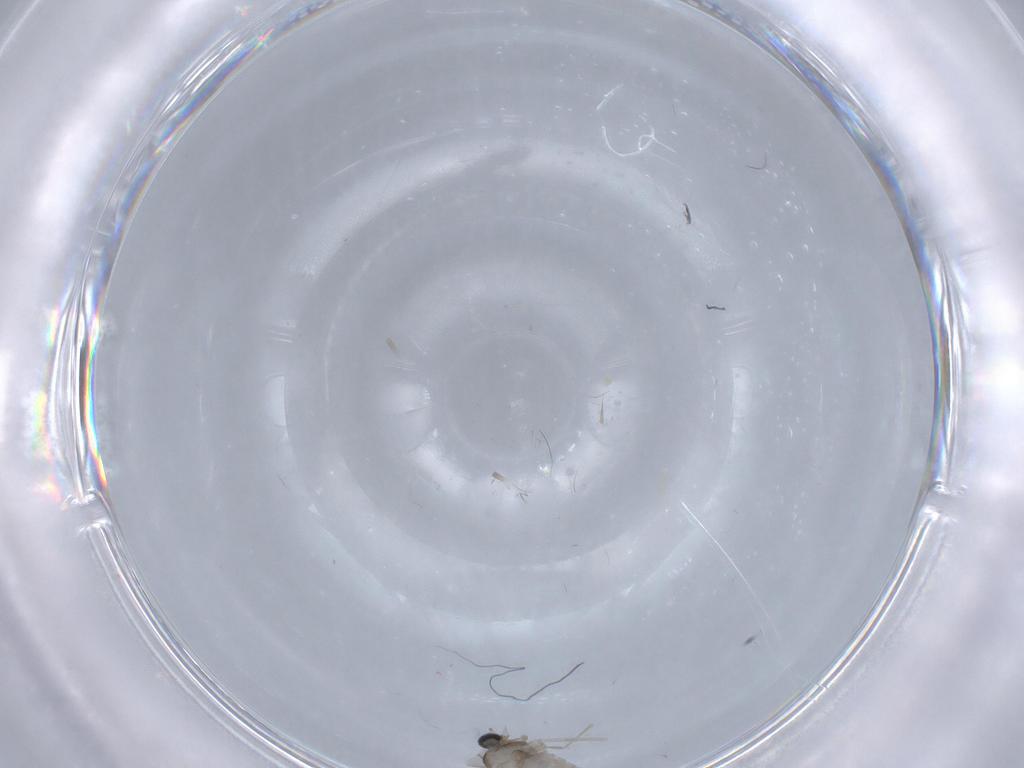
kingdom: Animalia
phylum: Arthropoda
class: Insecta
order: Diptera
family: Cecidomyiidae
